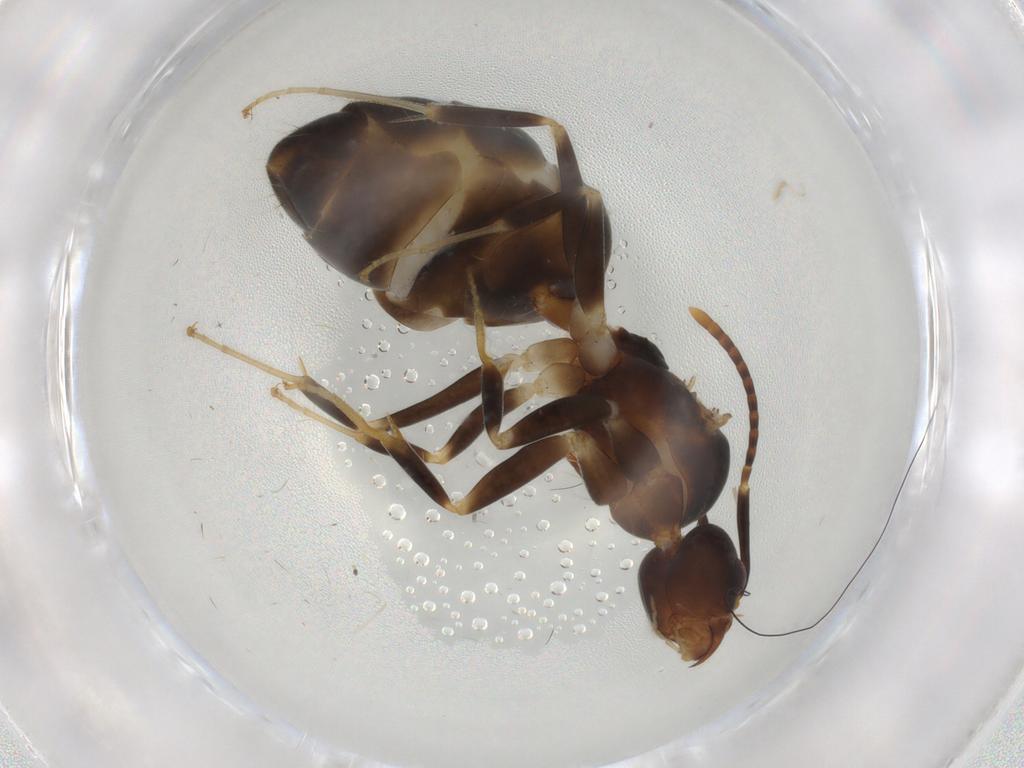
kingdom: Animalia
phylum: Arthropoda
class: Insecta
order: Hymenoptera
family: Formicidae
